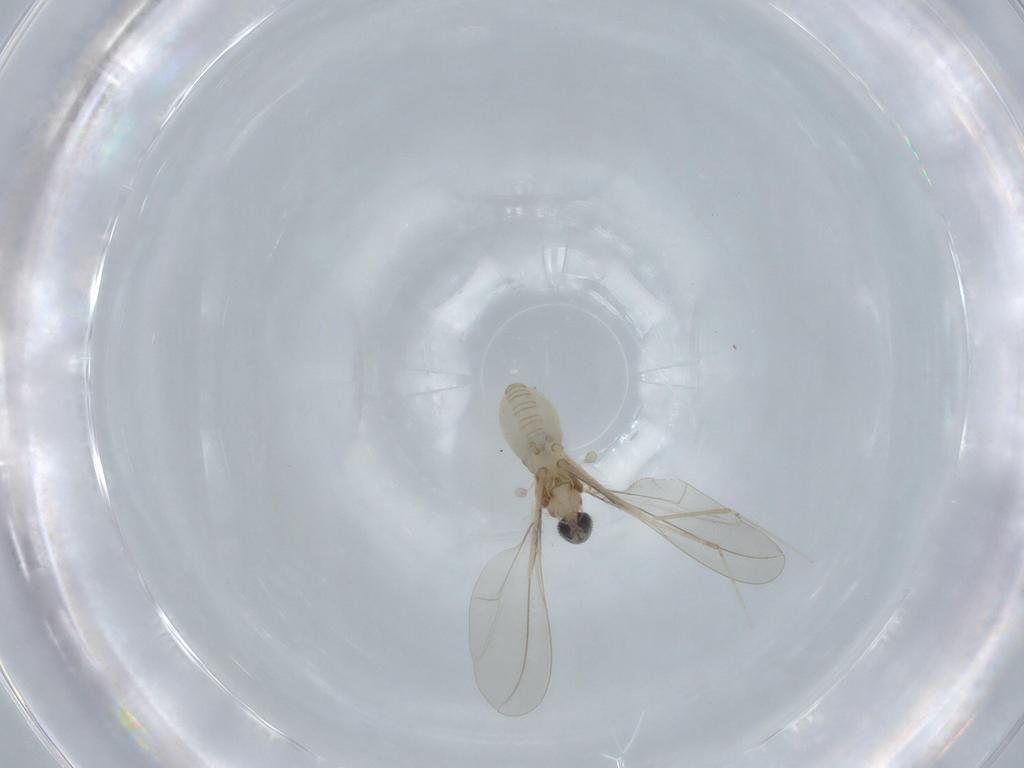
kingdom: Animalia
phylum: Arthropoda
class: Insecta
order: Diptera
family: Cecidomyiidae
